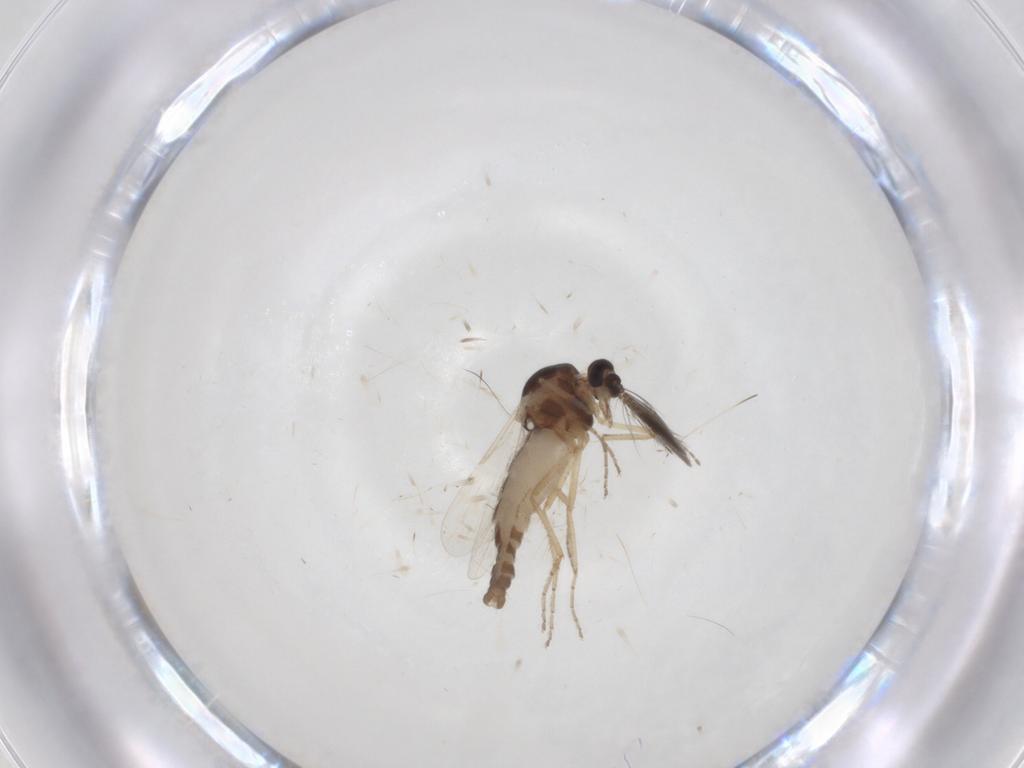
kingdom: Animalia
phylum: Arthropoda
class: Insecta
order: Diptera
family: Ceratopogonidae
